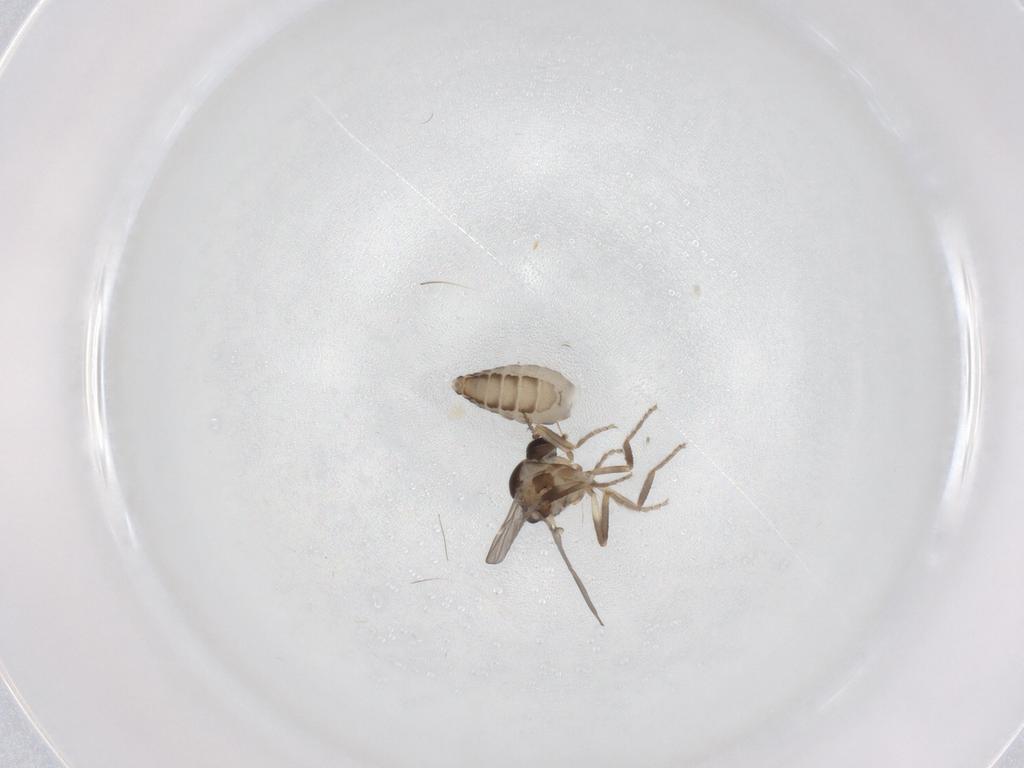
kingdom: Animalia
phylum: Arthropoda
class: Insecta
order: Diptera
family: Ceratopogonidae
